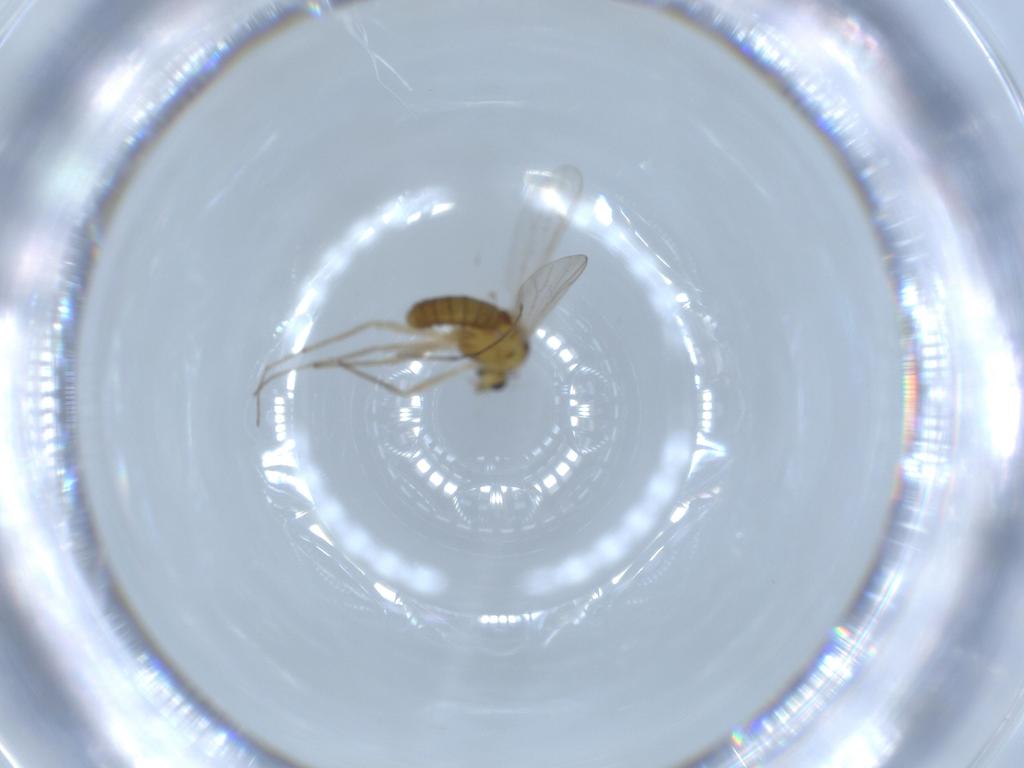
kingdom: Animalia
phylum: Arthropoda
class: Insecta
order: Diptera
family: Chironomidae
